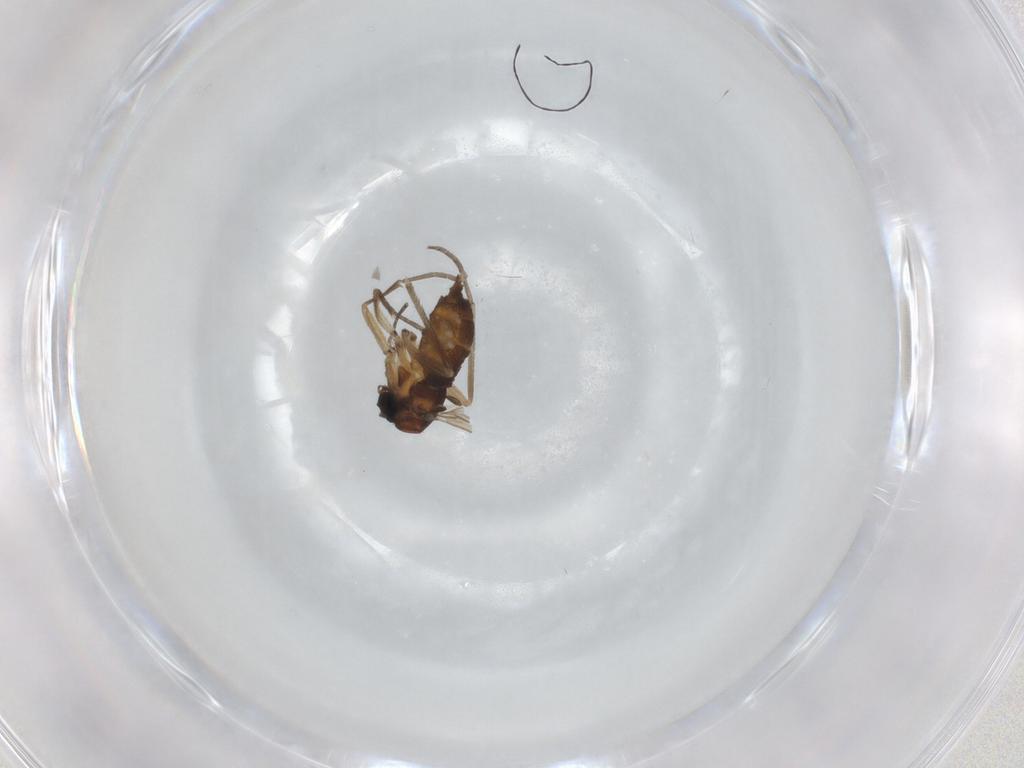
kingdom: Animalia
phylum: Arthropoda
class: Insecta
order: Diptera
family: Sciaridae
